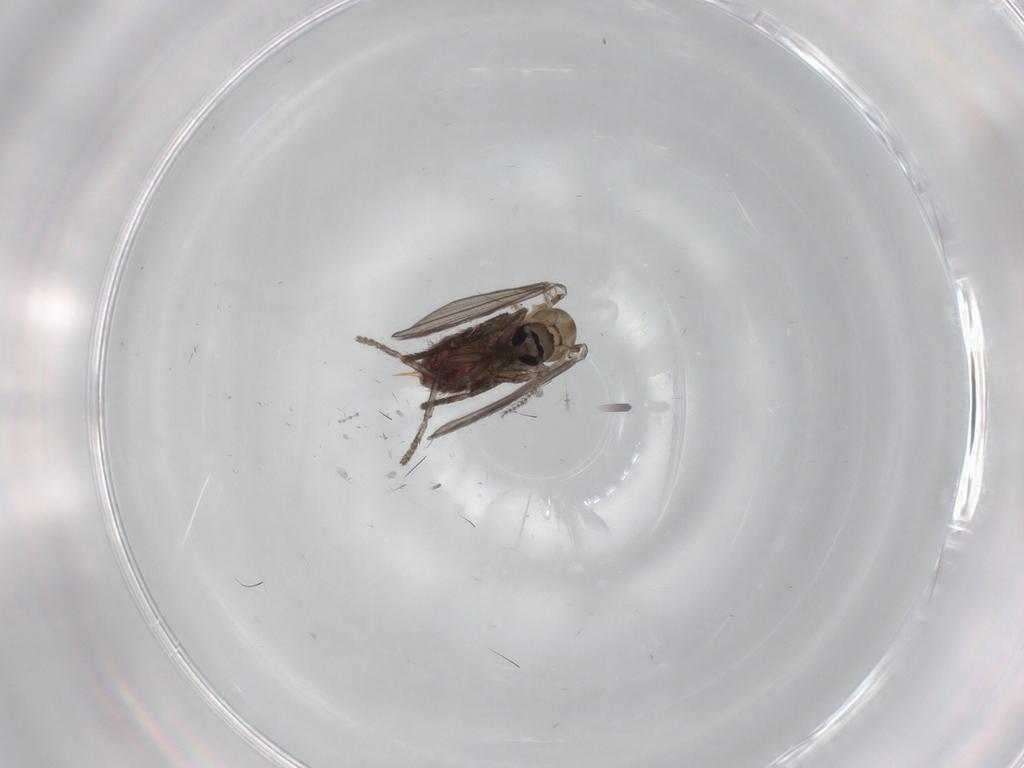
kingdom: Animalia
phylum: Arthropoda
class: Insecta
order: Diptera
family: Psychodidae
